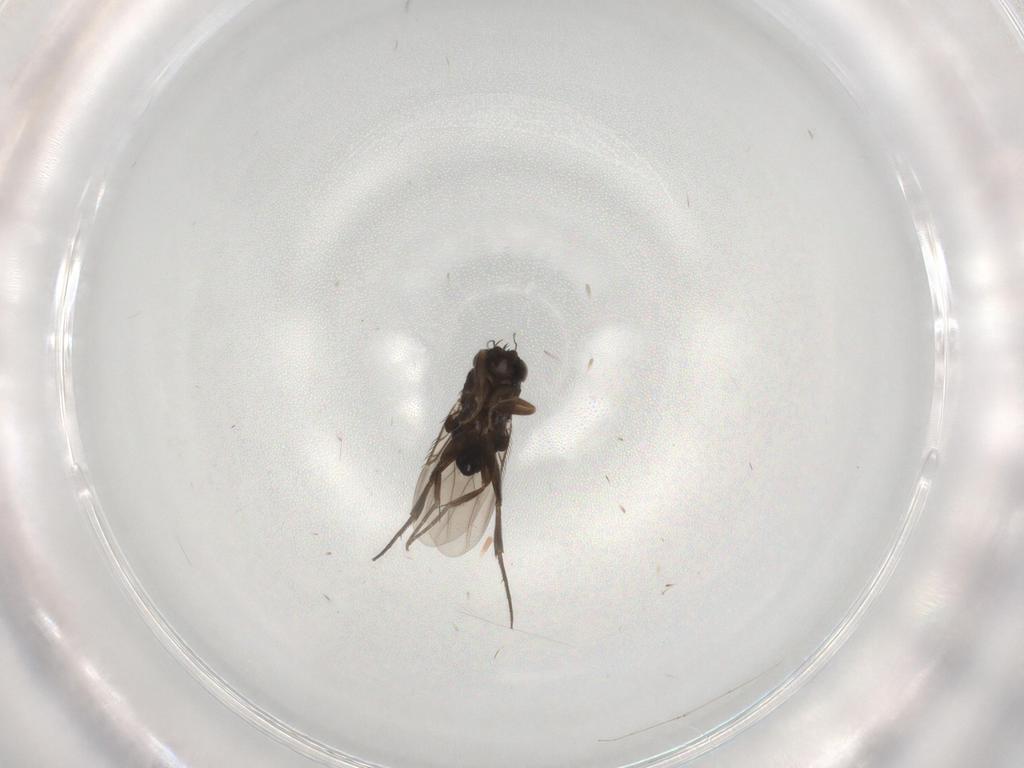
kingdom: Animalia
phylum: Arthropoda
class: Insecta
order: Diptera
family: Phoridae
